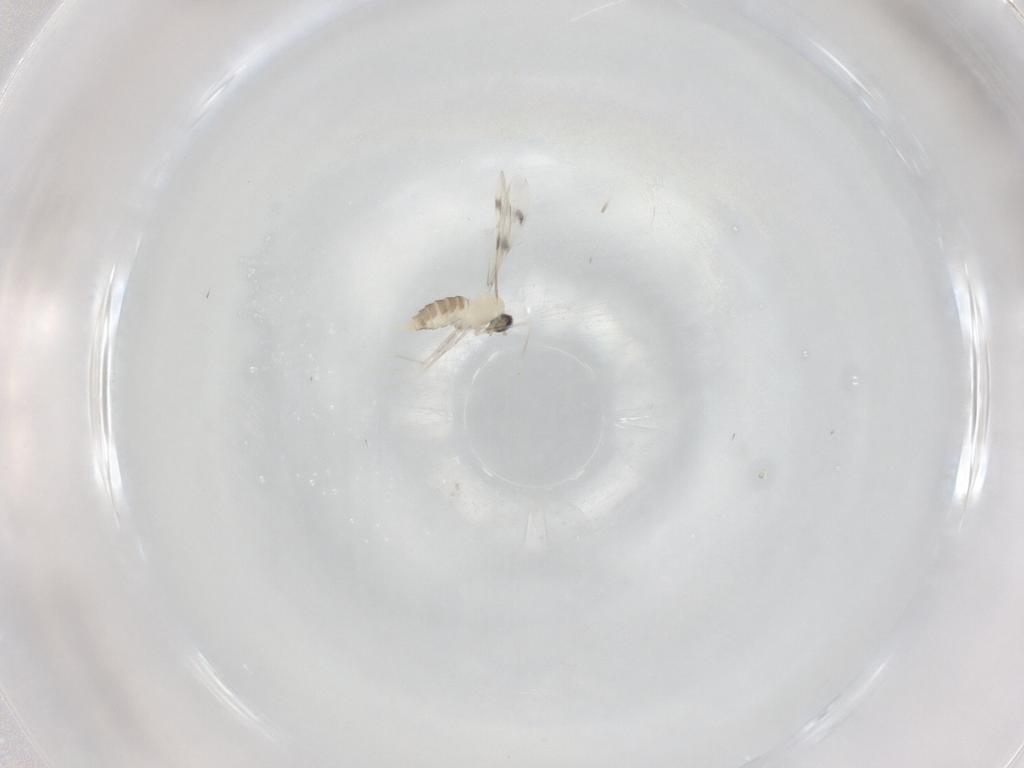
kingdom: Animalia
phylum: Arthropoda
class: Insecta
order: Diptera
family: Cecidomyiidae
